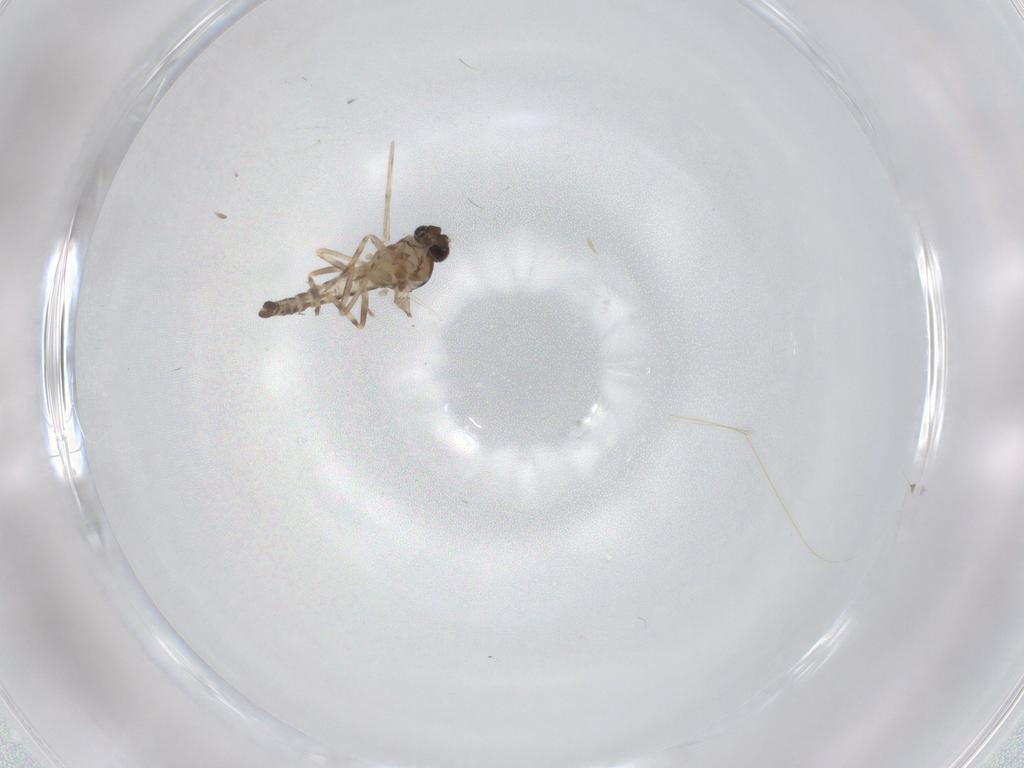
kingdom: Animalia
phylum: Arthropoda
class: Insecta
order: Diptera
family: Ceratopogonidae
